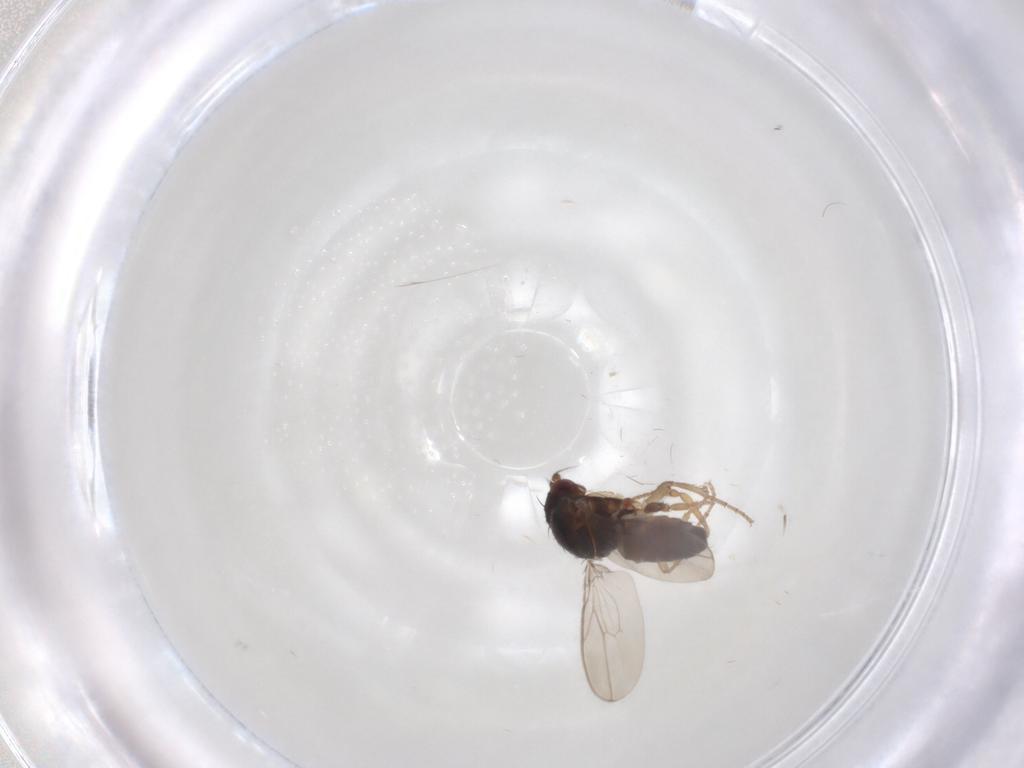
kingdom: Animalia
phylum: Arthropoda
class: Insecta
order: Diptera
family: Sphaeroceridae
